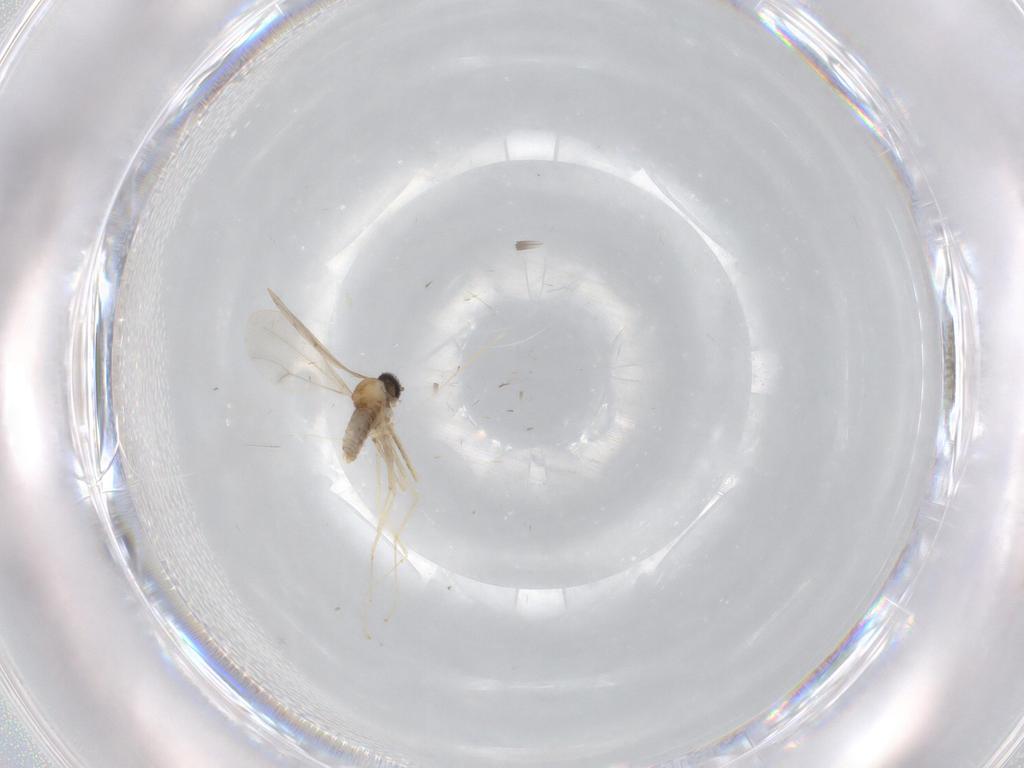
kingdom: Animalia
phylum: Arthropoda
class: Insecta
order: Diptera
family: Cecidomyiidae
